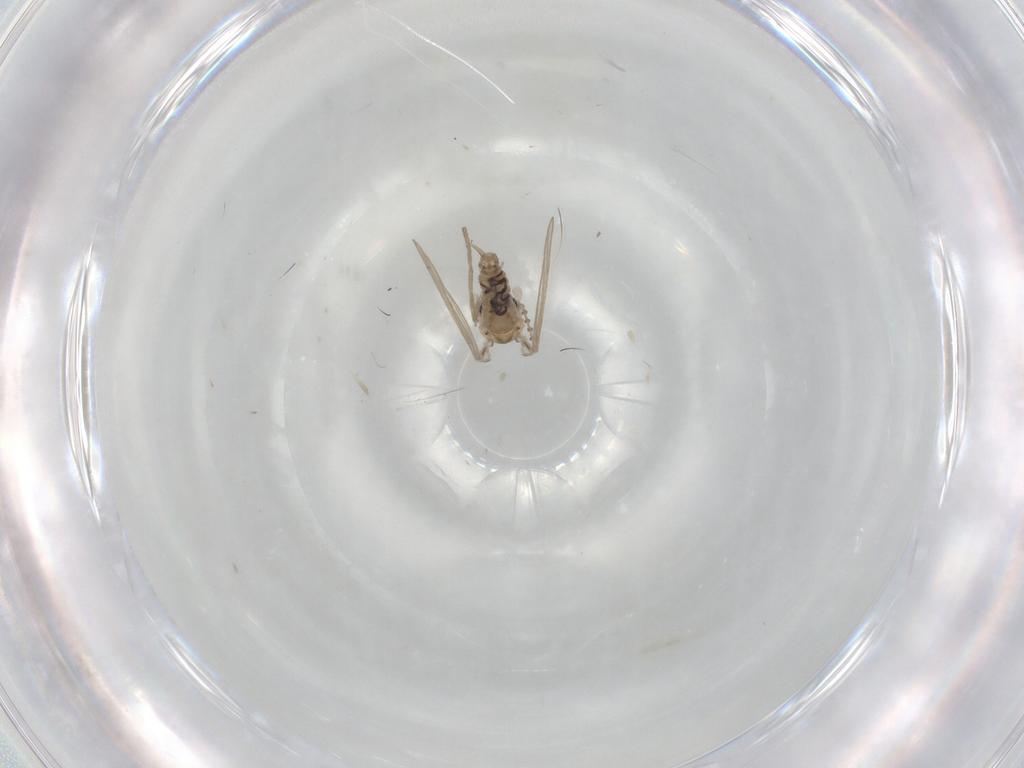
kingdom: Animalia
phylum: Arthropoda
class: Insecta
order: Diptera
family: Psychodidae
